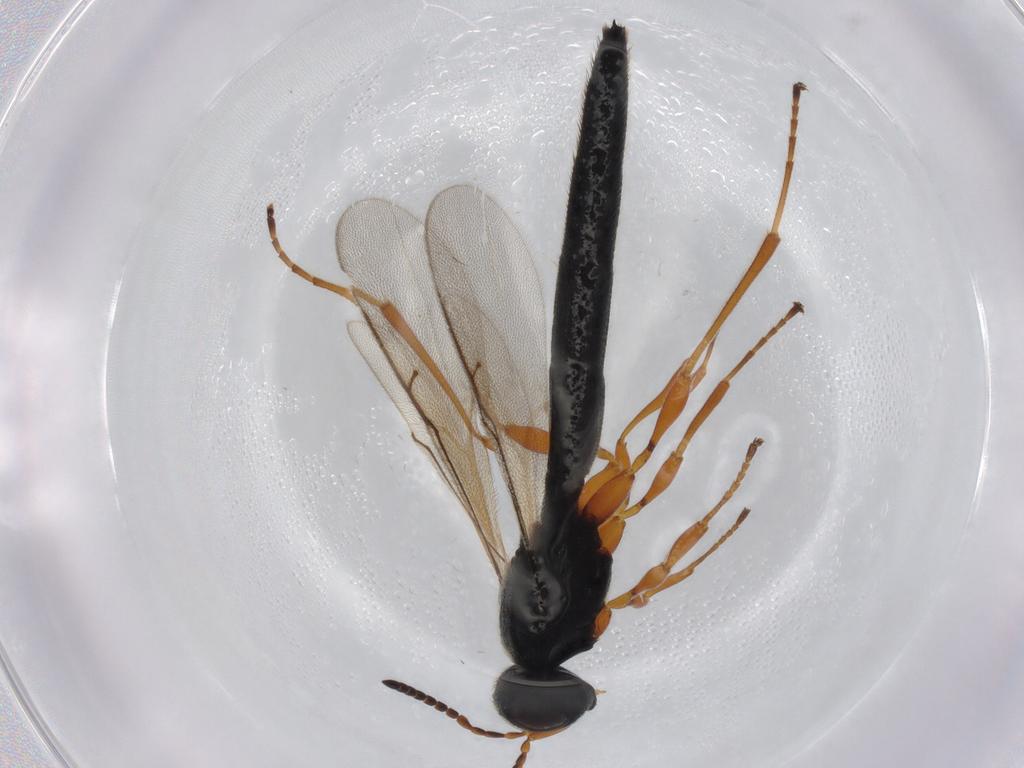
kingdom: Animalia
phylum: Arthropoda
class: Insecta
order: Hymenoptera
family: Scelionidae
